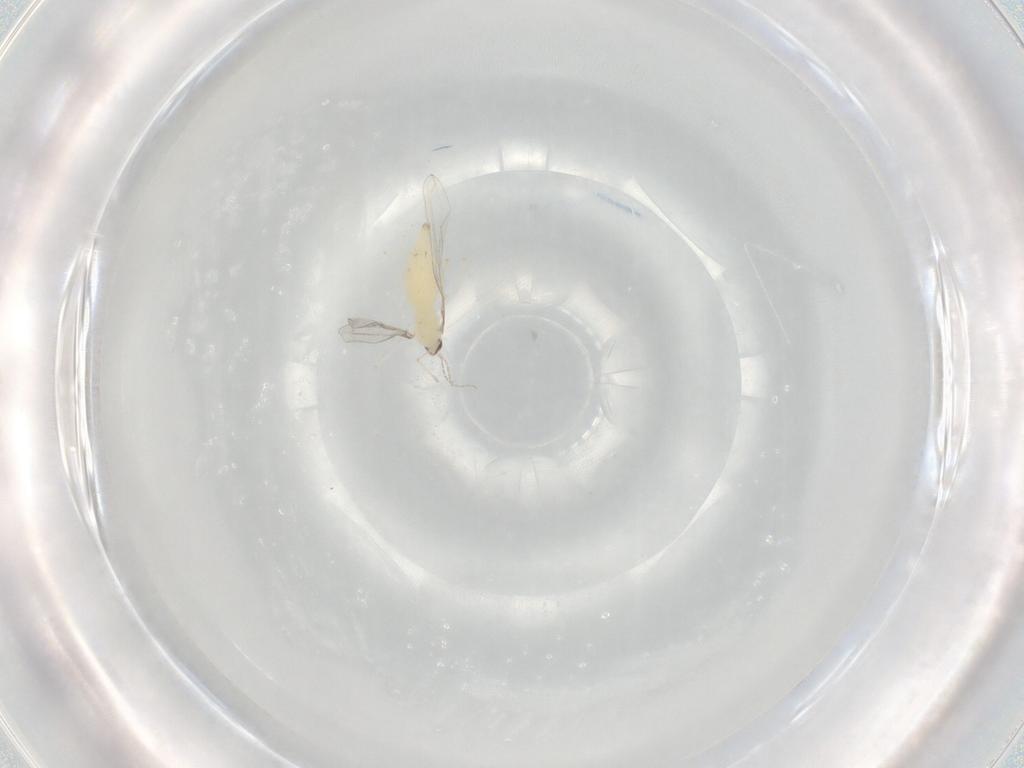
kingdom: Animalia
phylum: Arthropoda
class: Insecta
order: Diptera
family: Cecidomyiidae
